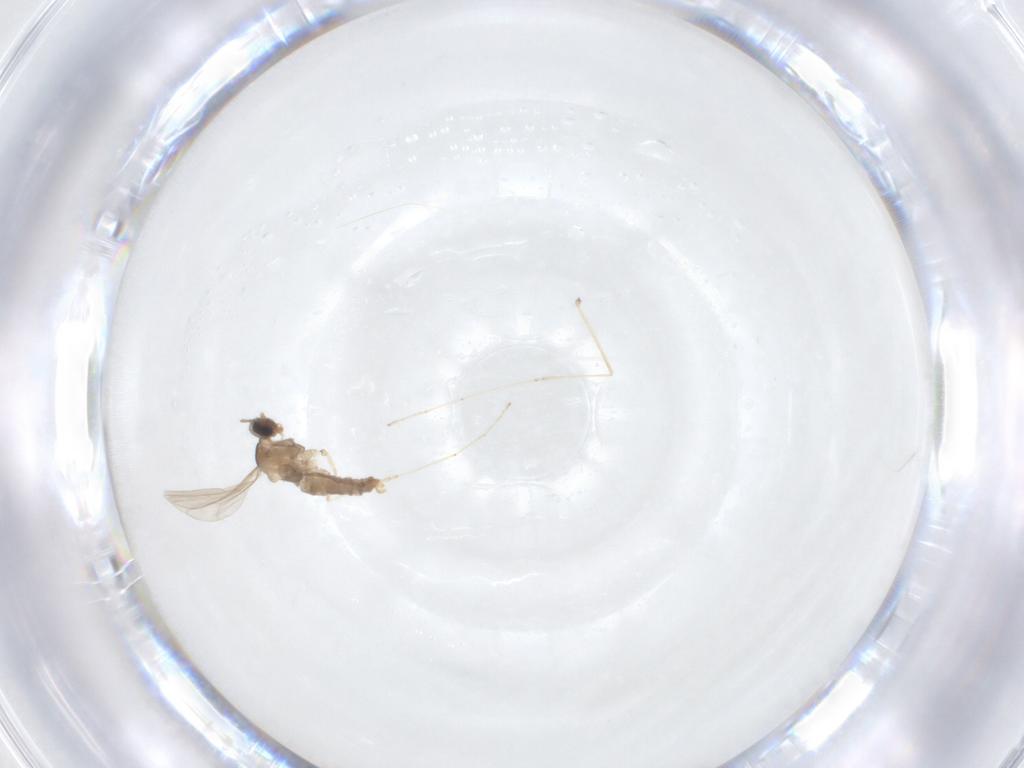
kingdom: Animalia
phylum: Arthropoda
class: Insecta
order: Diptera
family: Cecidomyiidae
